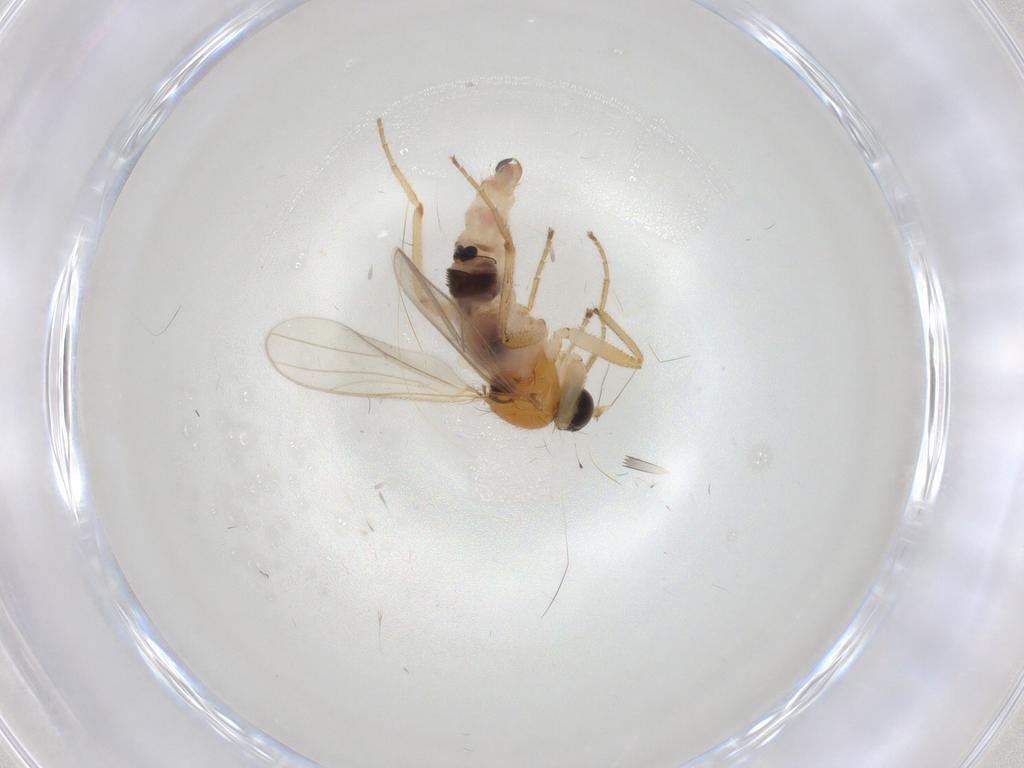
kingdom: Animalia
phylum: Arthropoda
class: Insecta
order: Diptera
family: Hybotidae
